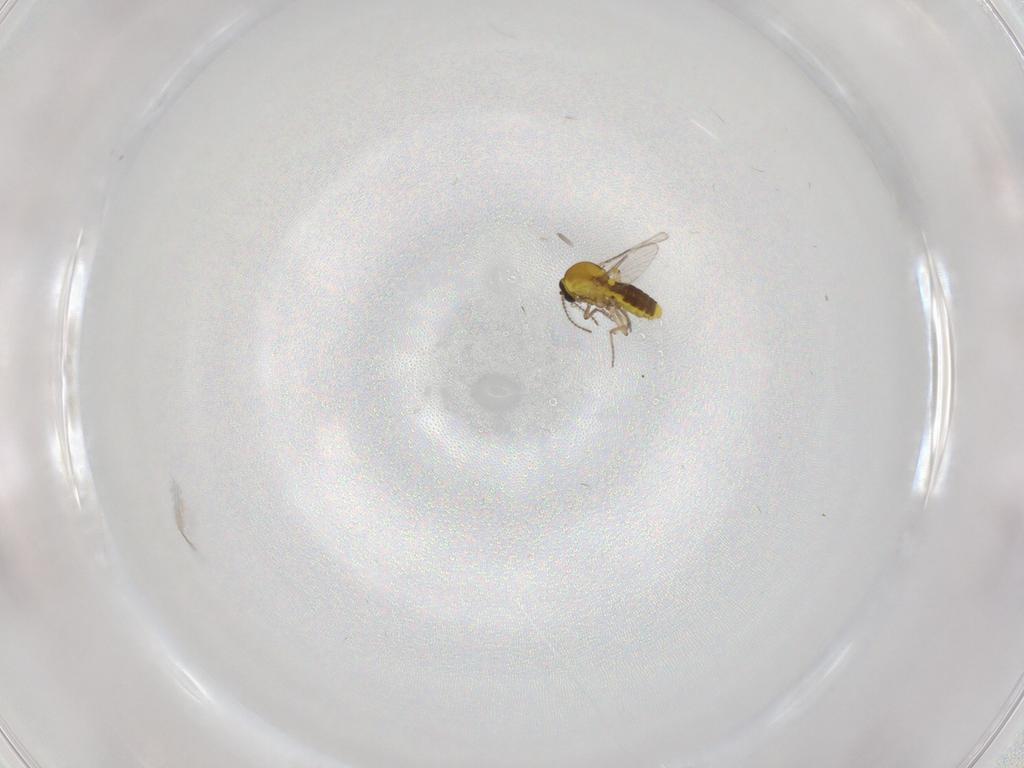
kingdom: Animalia
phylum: Arthropoda
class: Insecta
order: Diptera
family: Ceratopogonidae
